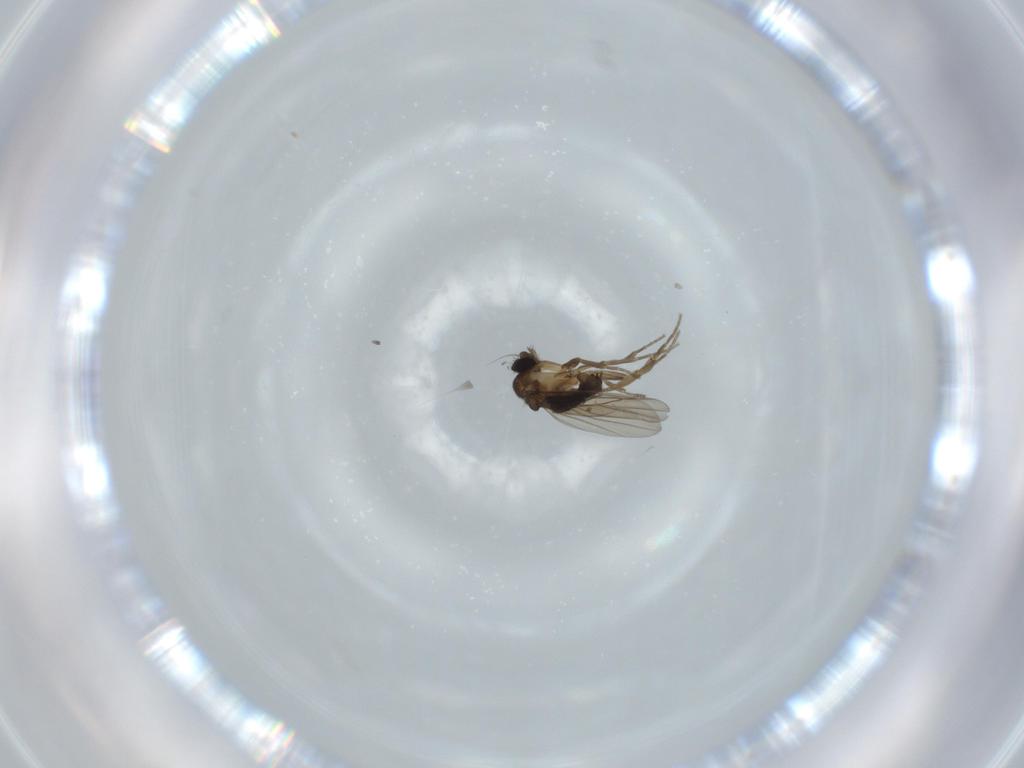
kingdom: Animalia
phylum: Arthropoda
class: Insecta
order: Diptera
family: Phoridae
